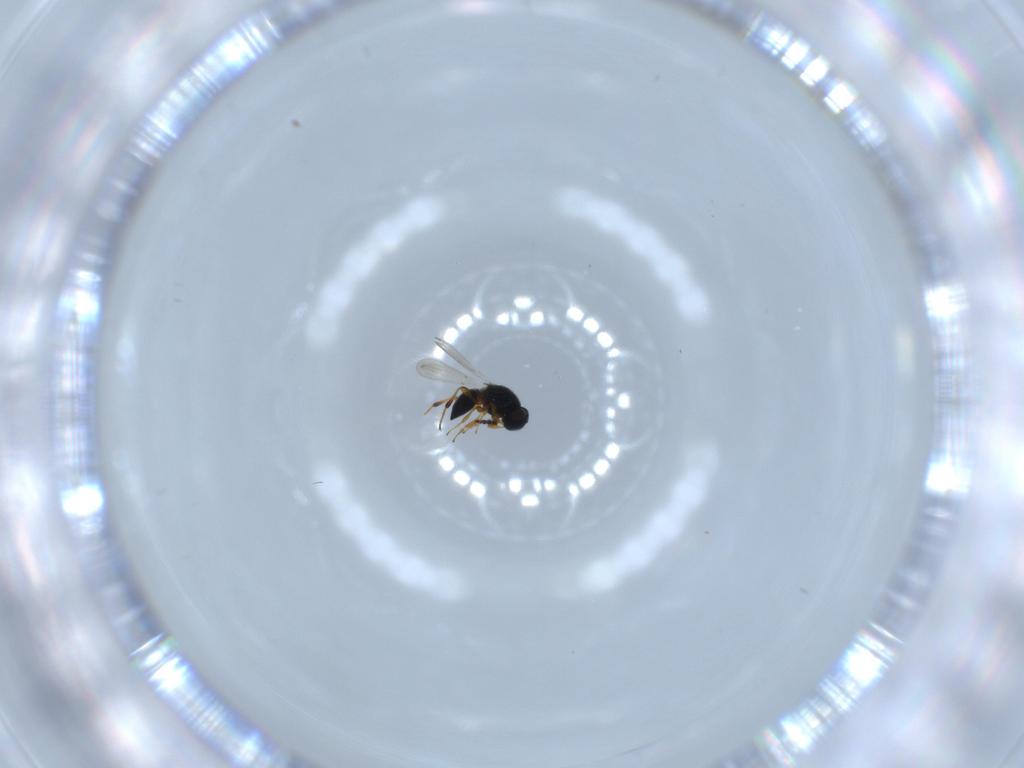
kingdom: Animalia
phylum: Arthropoda
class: Insecta
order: Hymenoptera
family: Platygastridae
